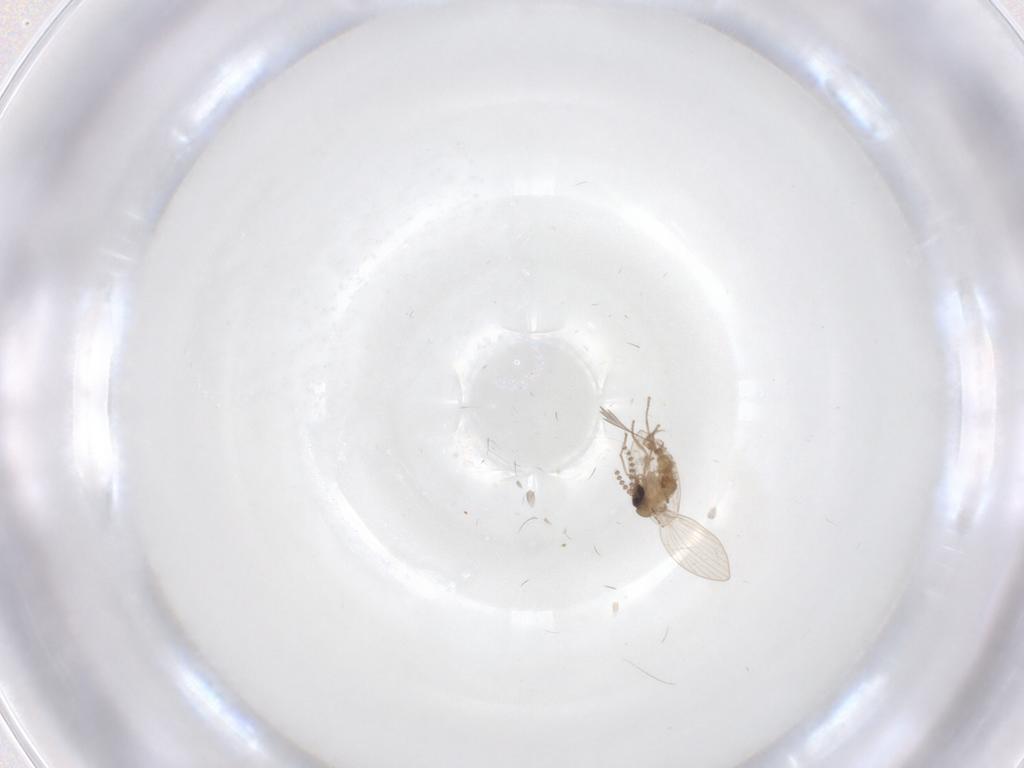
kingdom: Animalia
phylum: Arthropoda
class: Insecta
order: Diptera
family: Psychodidae
